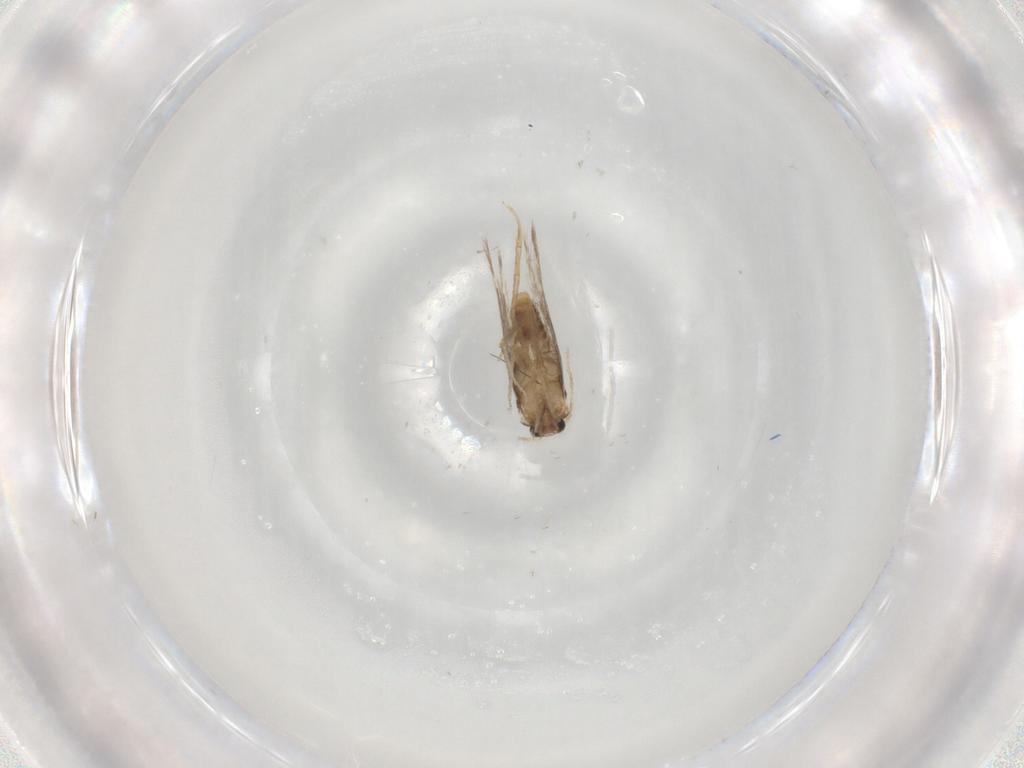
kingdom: Animalia
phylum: Arthropoda
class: Insecta
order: Lepidoptera
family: Nepticulidae
